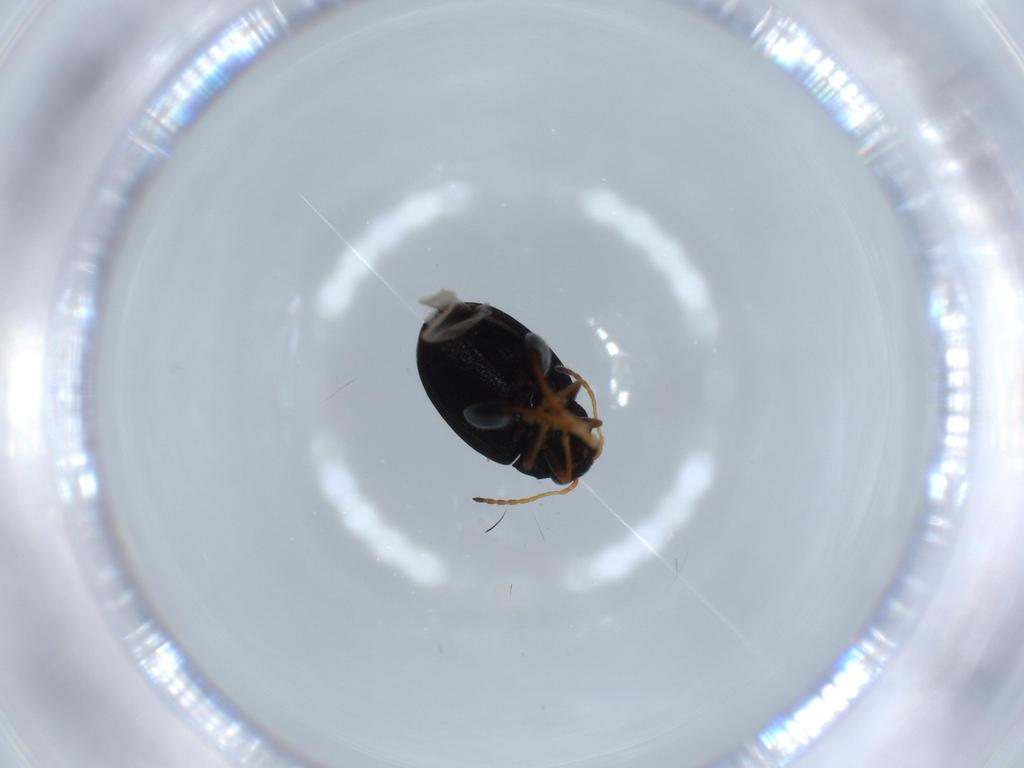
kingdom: Animalia
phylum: Arthropoda
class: Insecta
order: Coleoptera
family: Chrysomelidae
